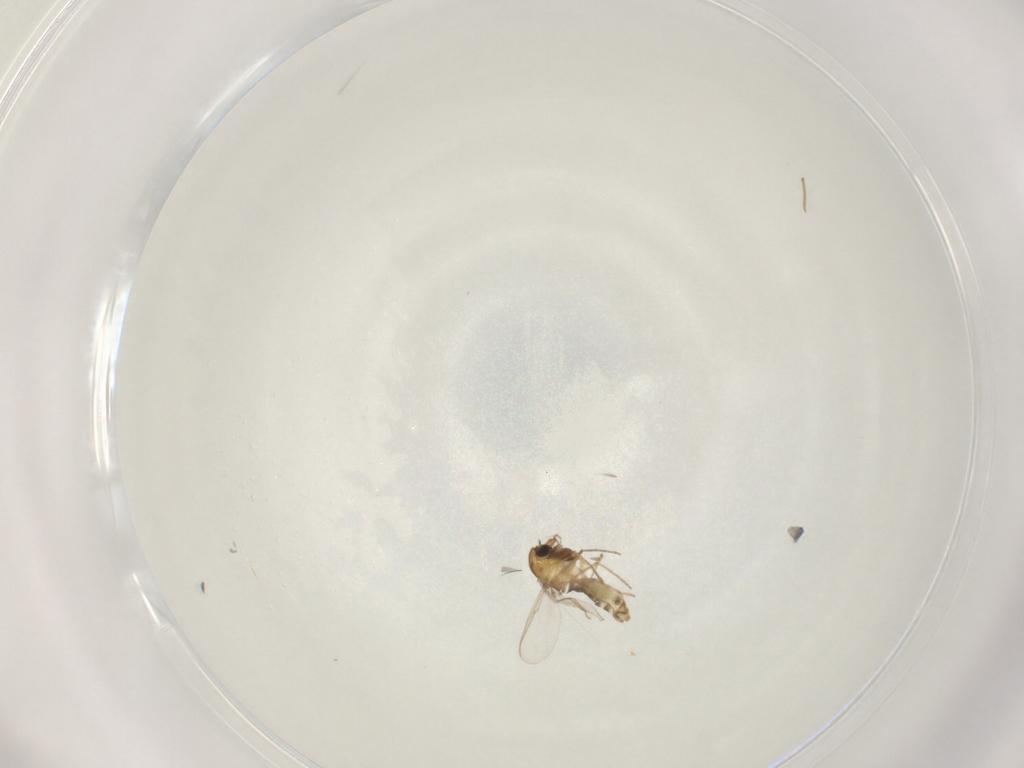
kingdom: Animalia
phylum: Arthropoda
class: Insecta
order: Diptera
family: Chironomidae
